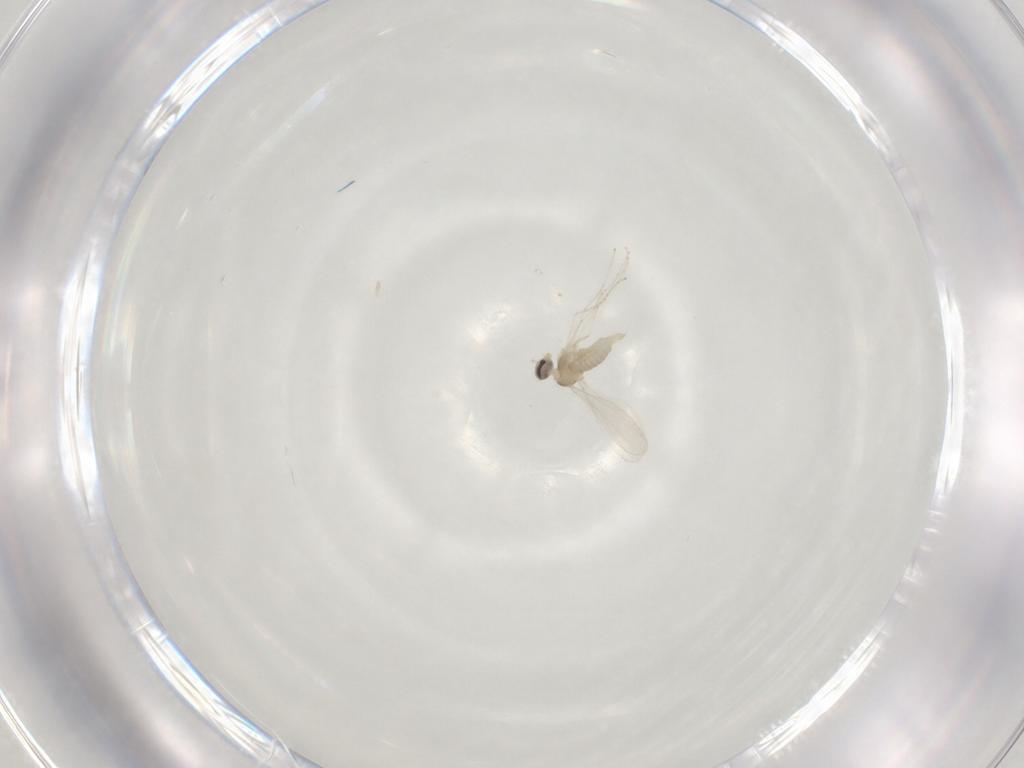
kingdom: Animalia
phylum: Arthropoda
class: Insecta
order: Diptera
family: Cecidomyiidae
